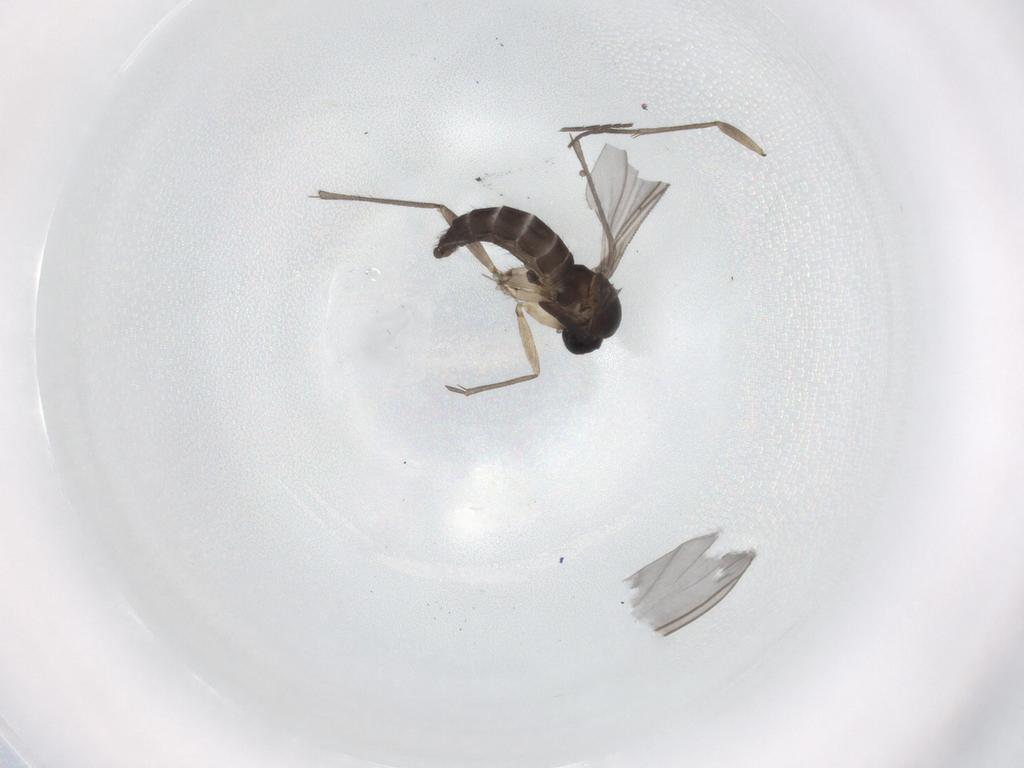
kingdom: Animalia
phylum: Arthropoda
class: Insecta
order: Diptera
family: Sciaridae
